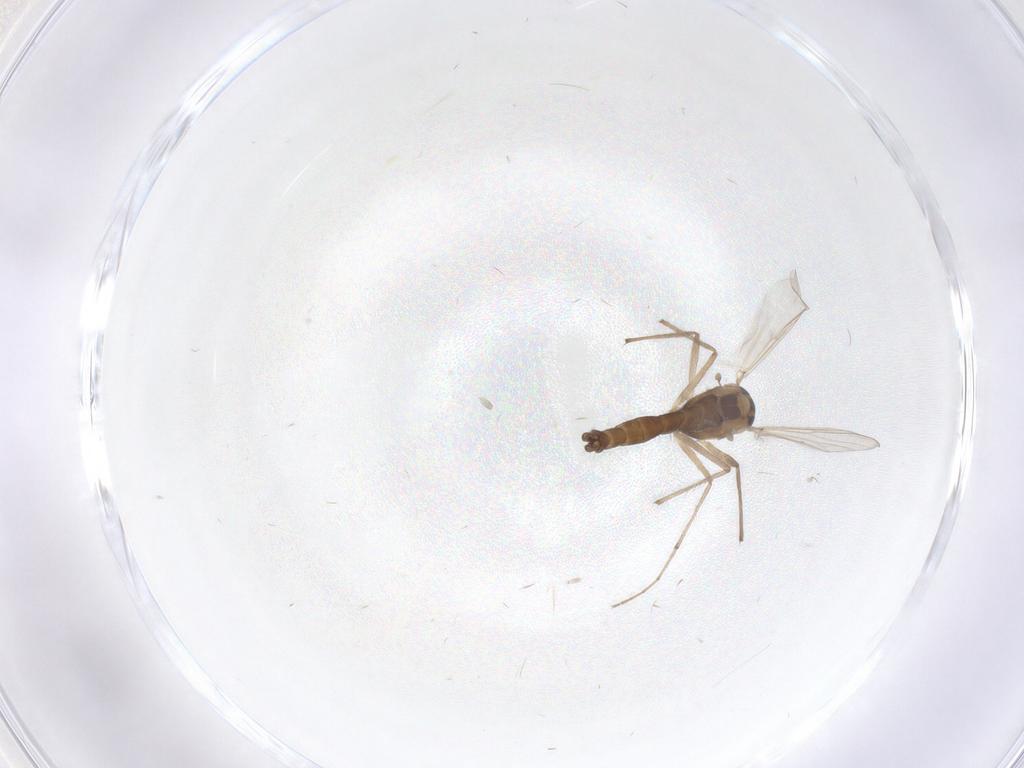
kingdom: Animalia
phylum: Arthropoda
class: Insecta
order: Diptera
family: Chironomidae
